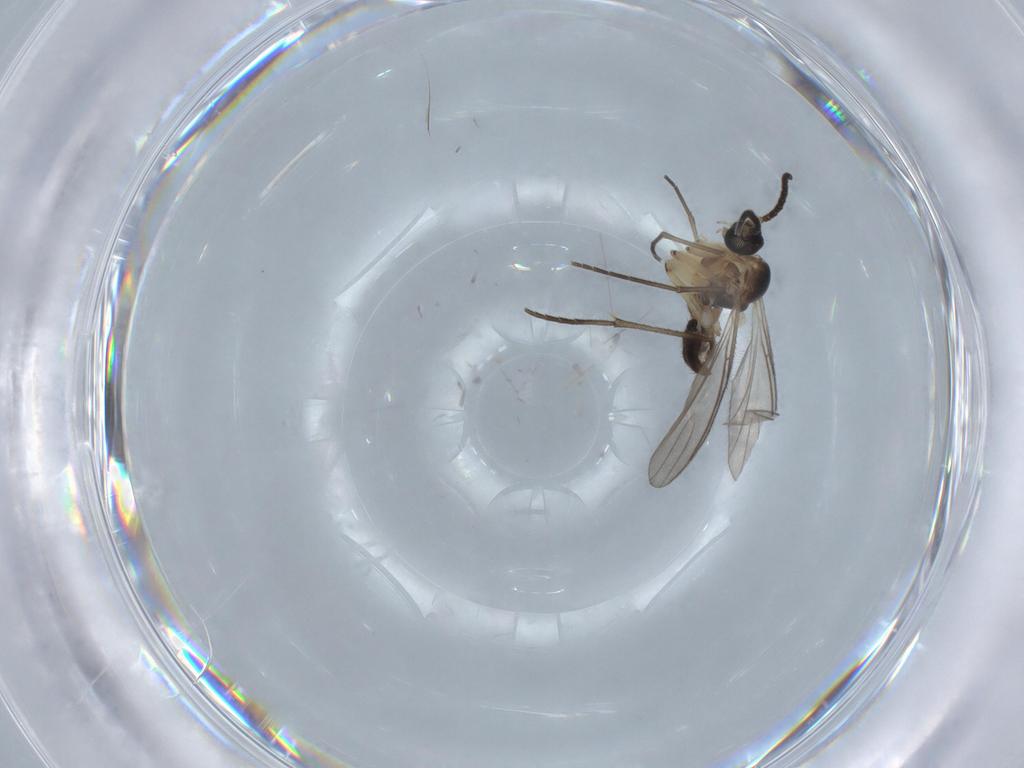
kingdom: Animalia
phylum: Arthropoda
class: Insecta
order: Diptera
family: Sciaridae
